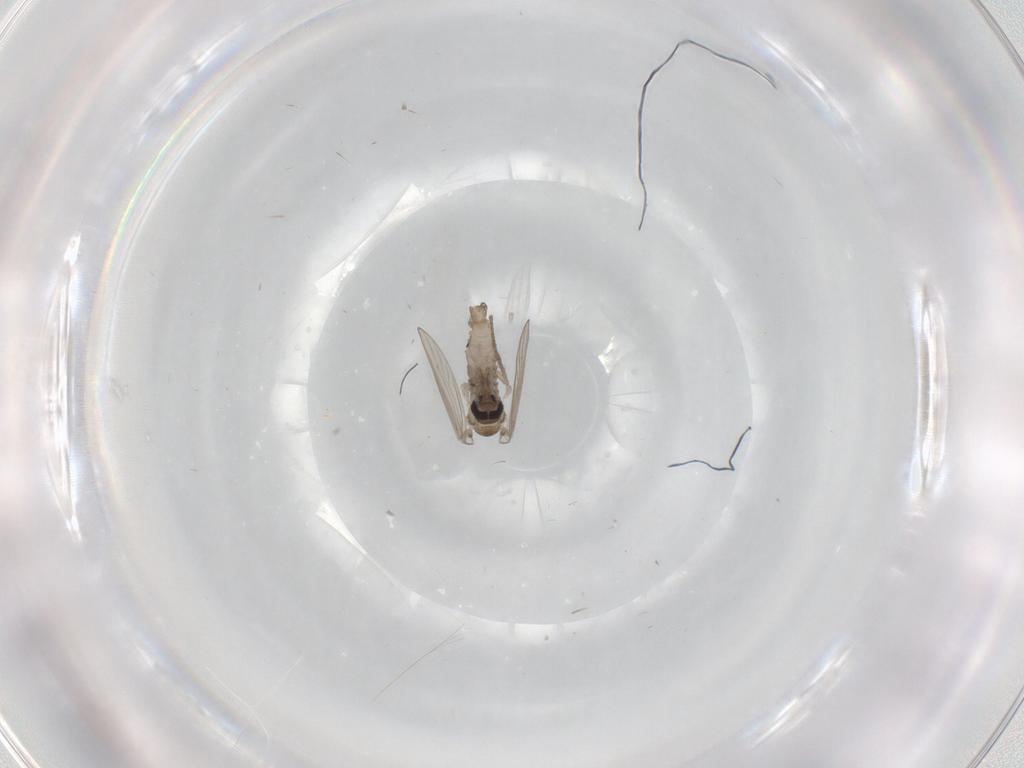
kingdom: Animalia
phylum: Arthropoda
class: Insecta
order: Diptera
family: Psychodidae
